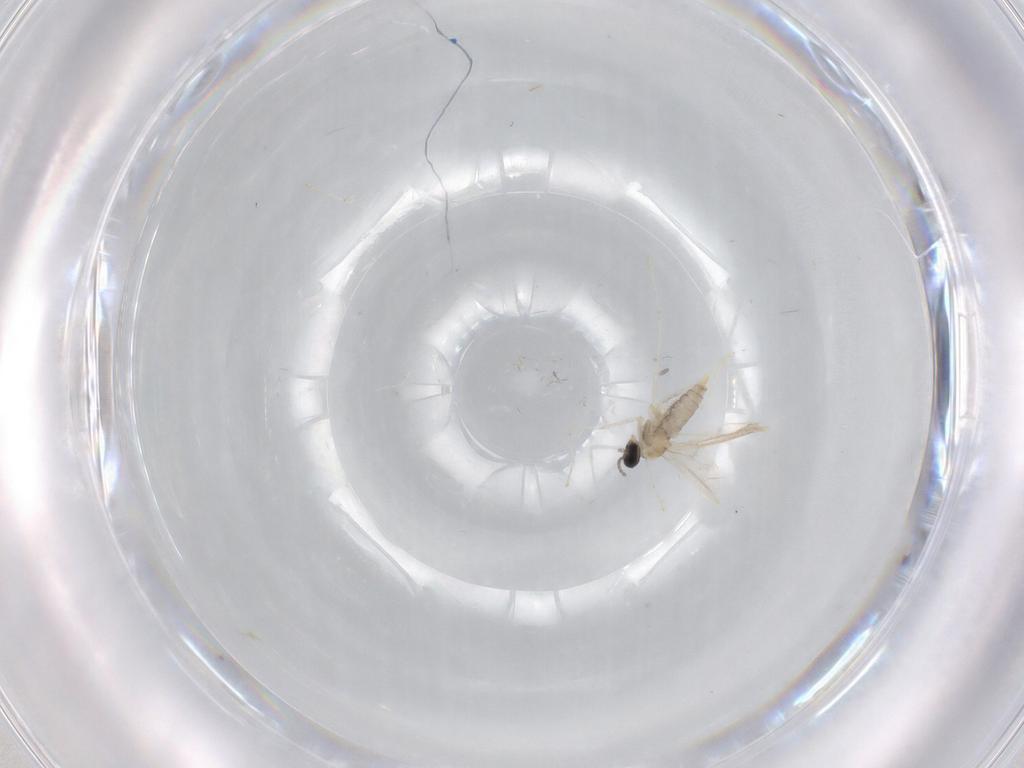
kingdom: Animalia
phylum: Arthropoda
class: Insecta
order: Diptera
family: Cecidomyiidae
